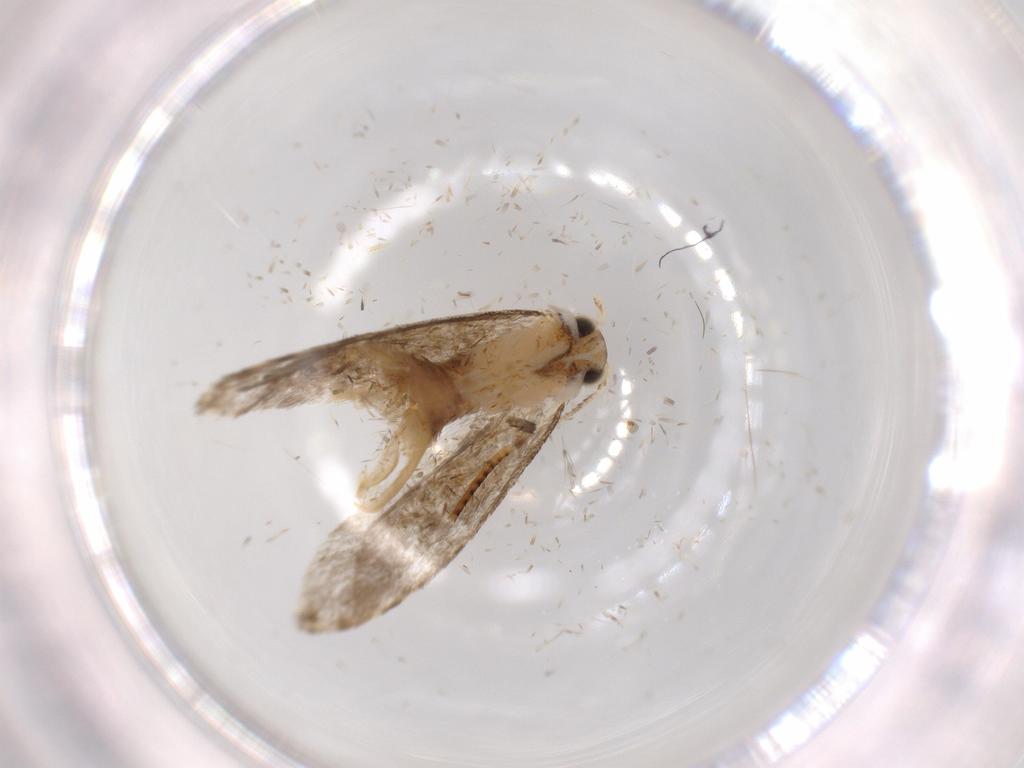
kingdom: Animalia
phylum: Arthropoda
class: Insecta
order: Lepidoptera
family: Tineidae
